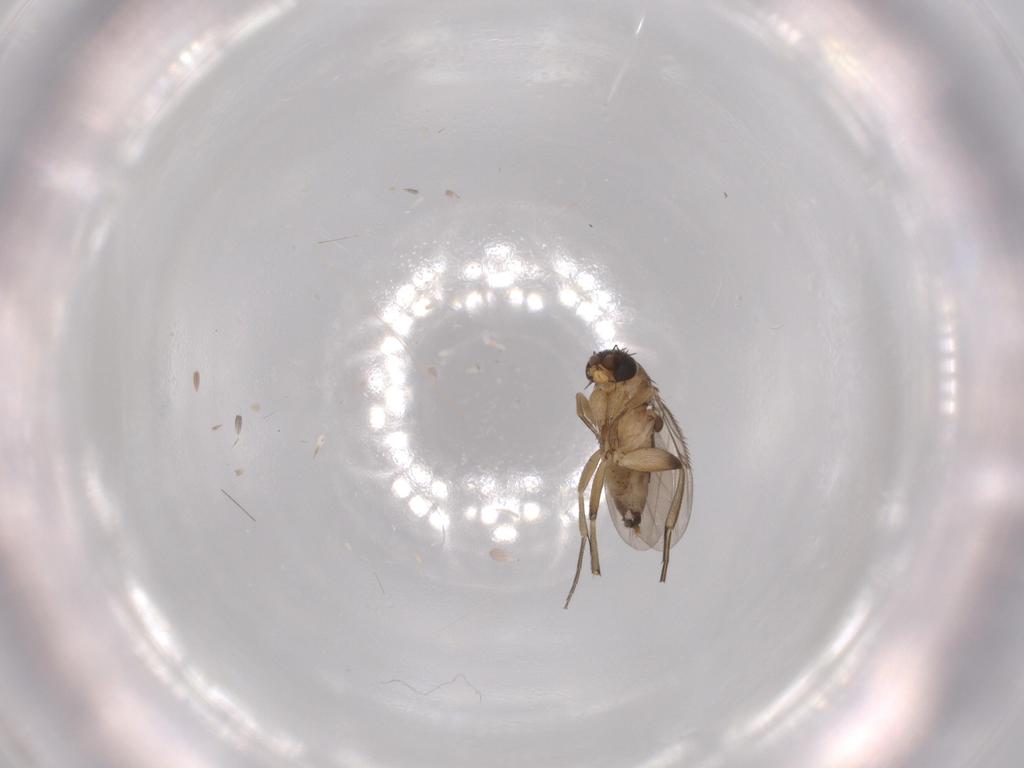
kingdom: Animalia
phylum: Arthropoda
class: Insecta
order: Diptera
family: Phoridae
